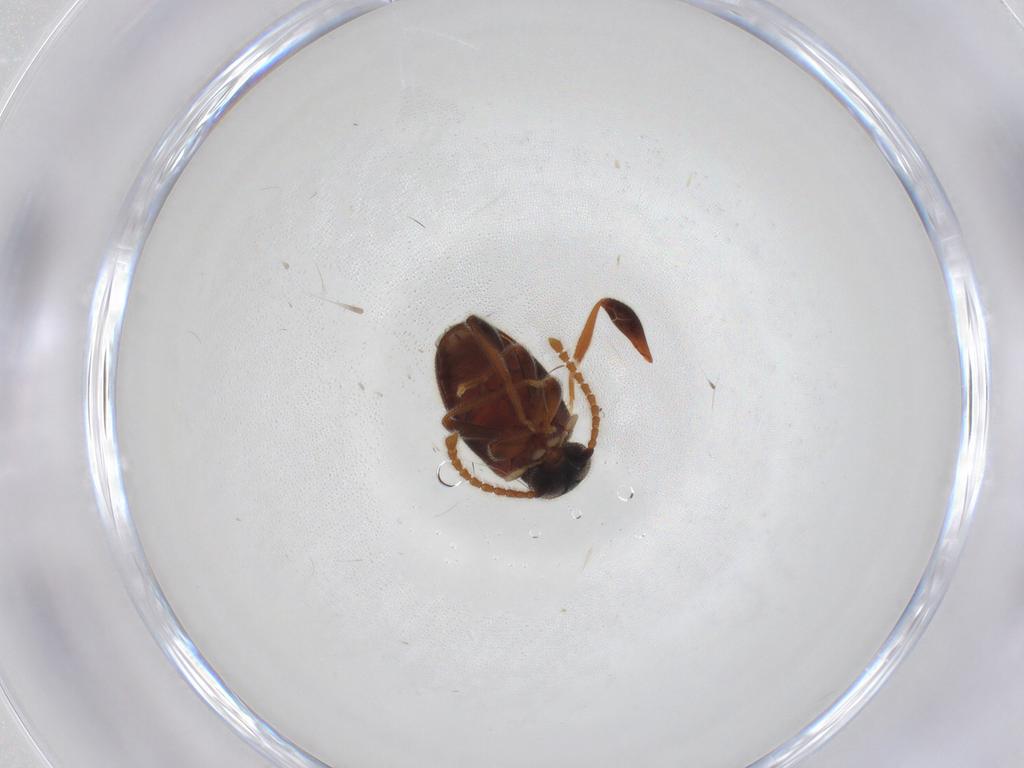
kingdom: Animalia
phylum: Arthropoda
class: Insecta
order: Coleoptera
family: Aderidae
